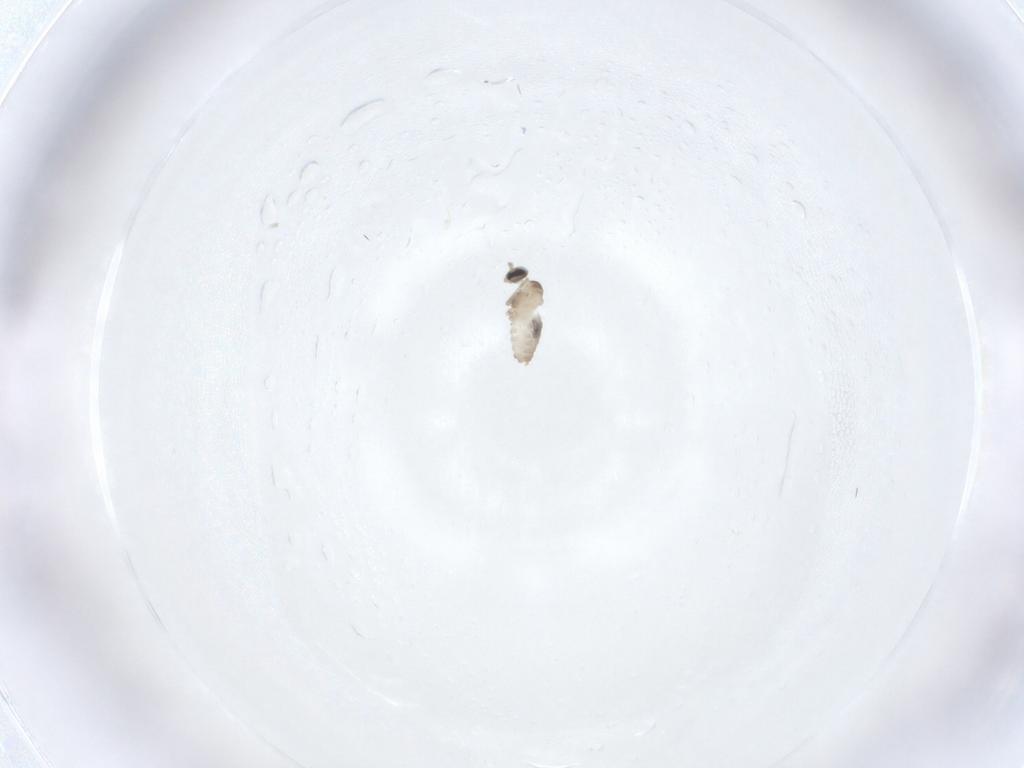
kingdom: Animalia
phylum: Arthropoda
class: Insecta
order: Diptera
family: Cecidomyiidae
